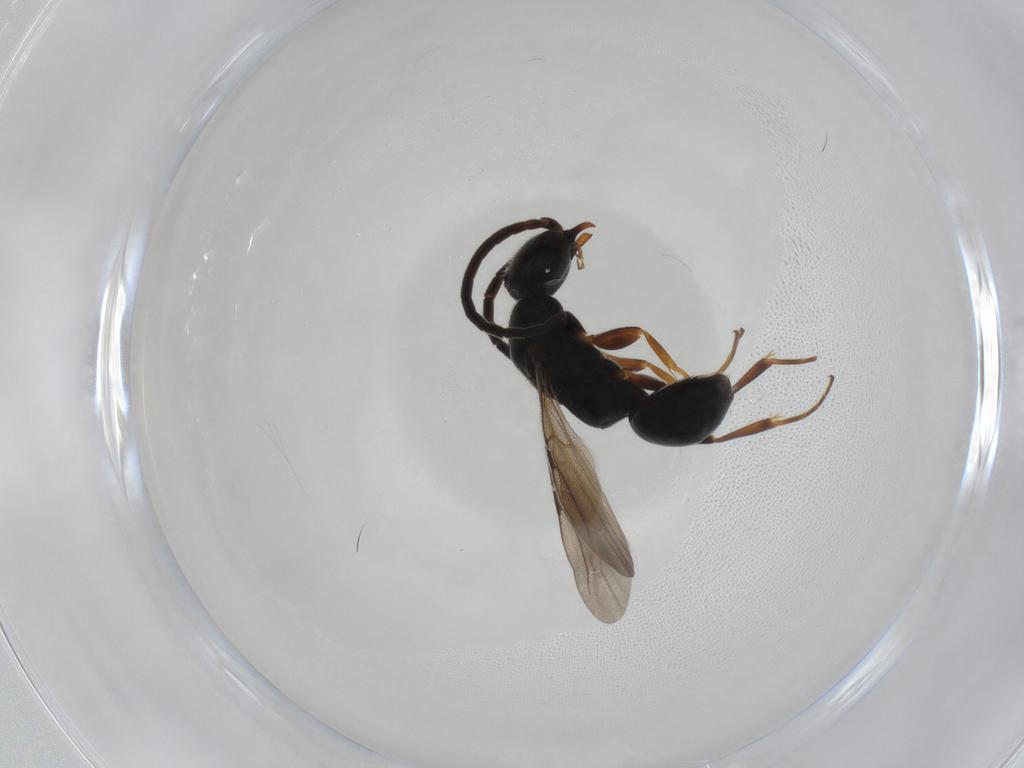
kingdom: Animalia
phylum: Arthropoda
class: Insecta
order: Hymenoptera
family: Bethylidae
